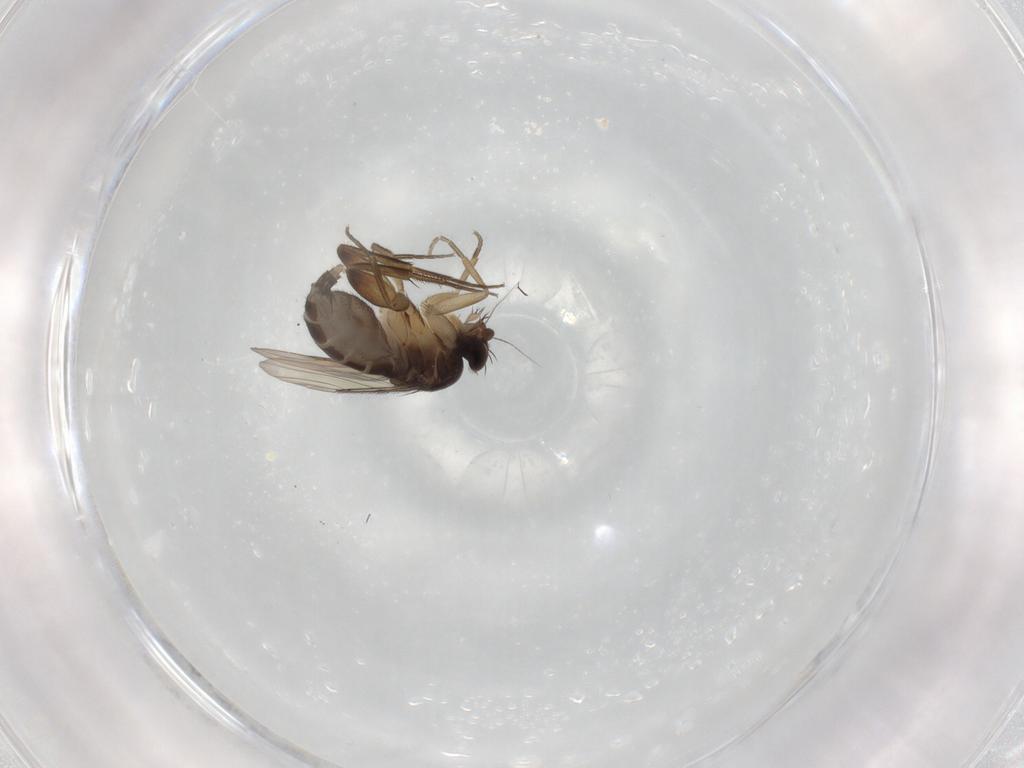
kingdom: Animalia
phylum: Arthropoda
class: Insecta
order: Diptera
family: Phoridae
